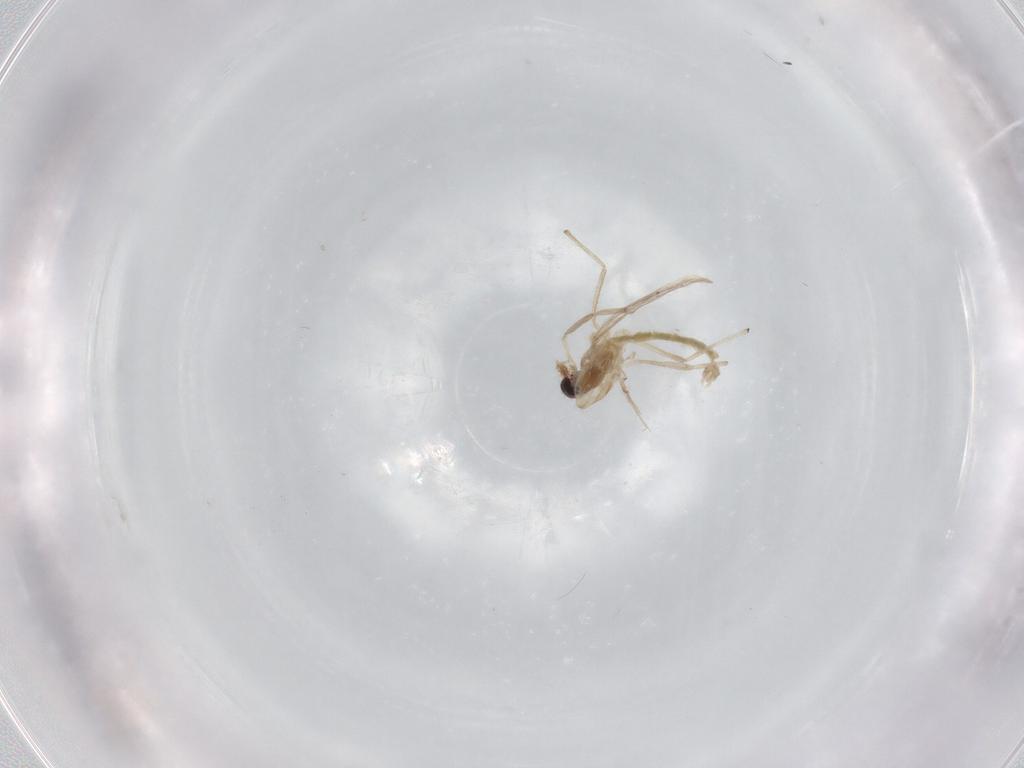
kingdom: Animalia
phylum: Arthropoda
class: Insecta
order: Diptera
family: Chironomidae
